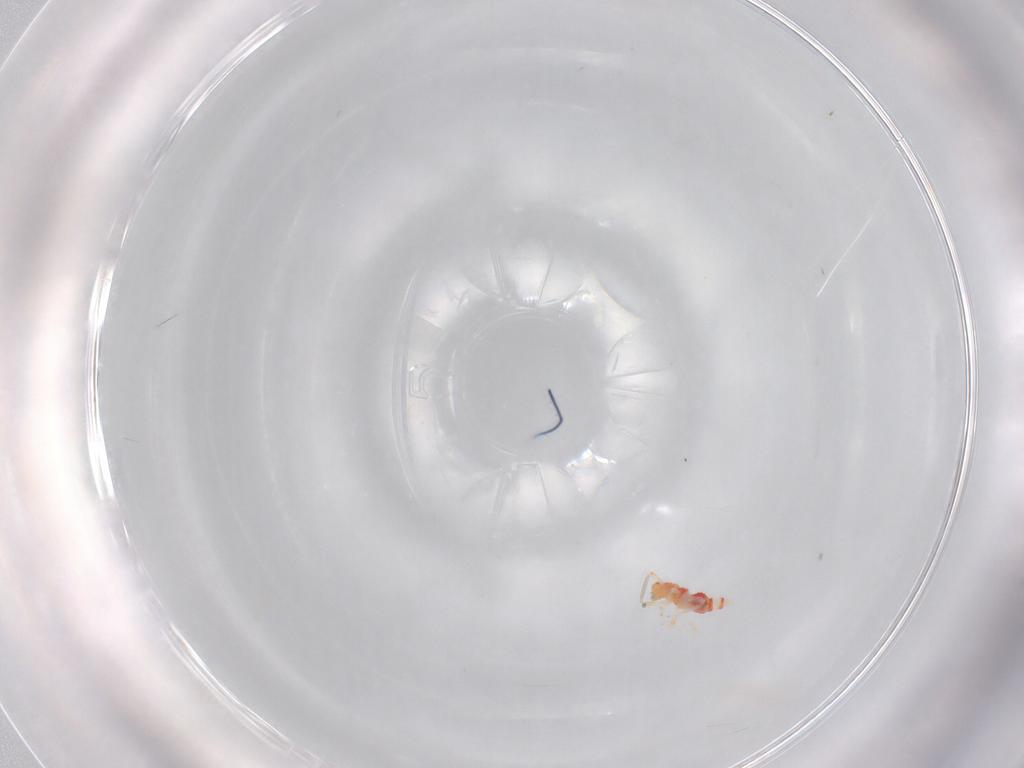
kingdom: Animalia
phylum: Arthropoda
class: Insecta
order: Thysanoptera
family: Aeolothripidae
